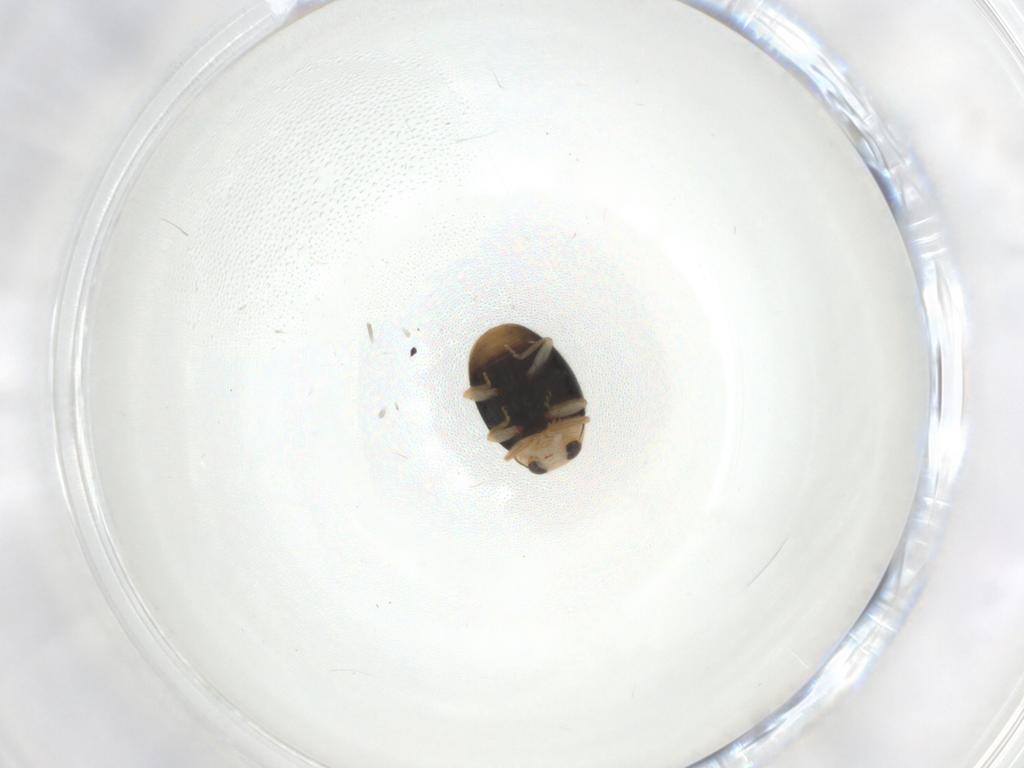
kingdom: Animalia
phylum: Arthropoda
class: Insecta
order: Coleoptera
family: Coccinellidae
